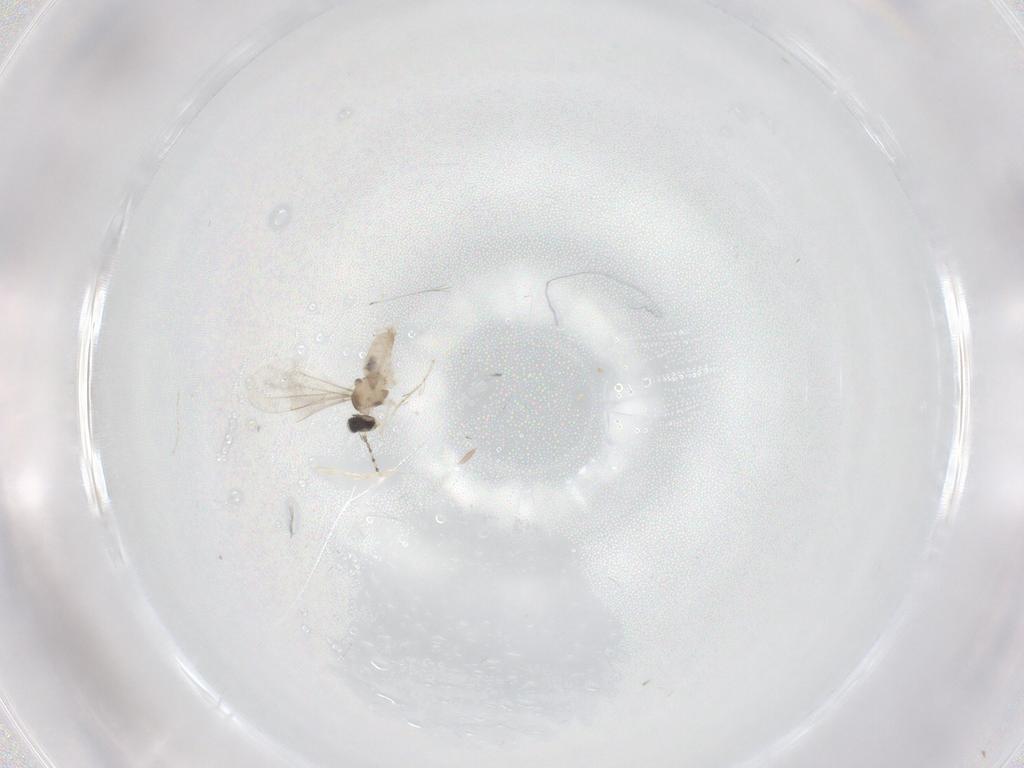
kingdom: Animalia
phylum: Arthropoda
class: Insecta
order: Diptera
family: Cecidomyiidae
